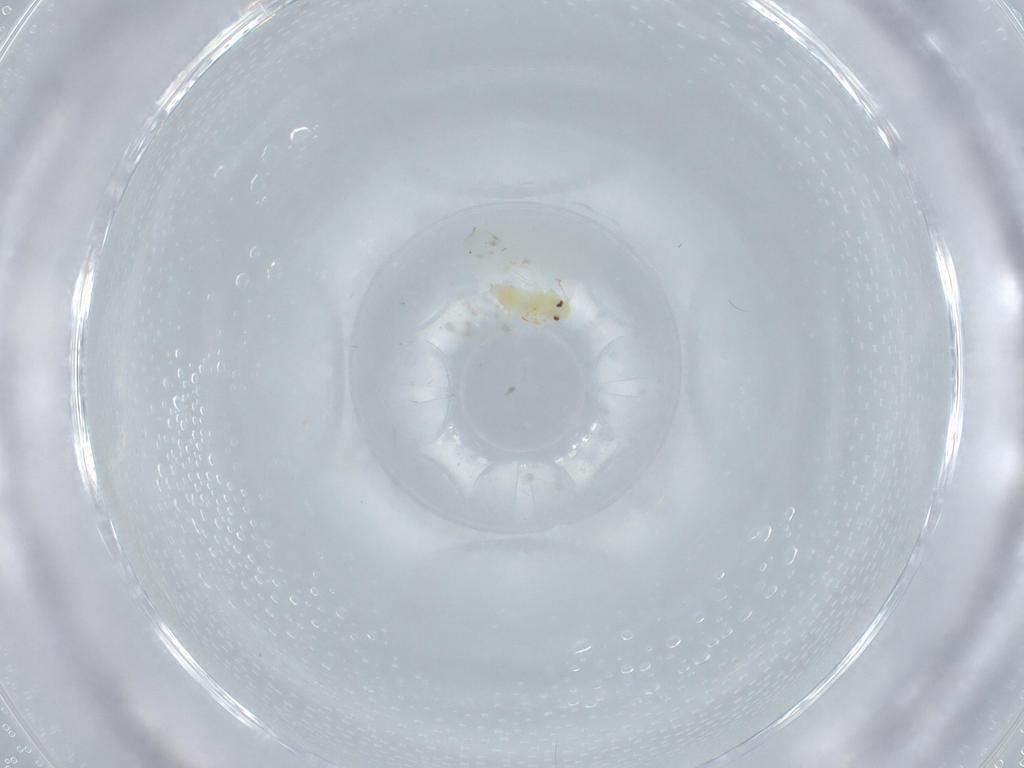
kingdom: Animalia
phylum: Arthropoda
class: Insecta
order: Hemiptera
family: Aleyrodidae
